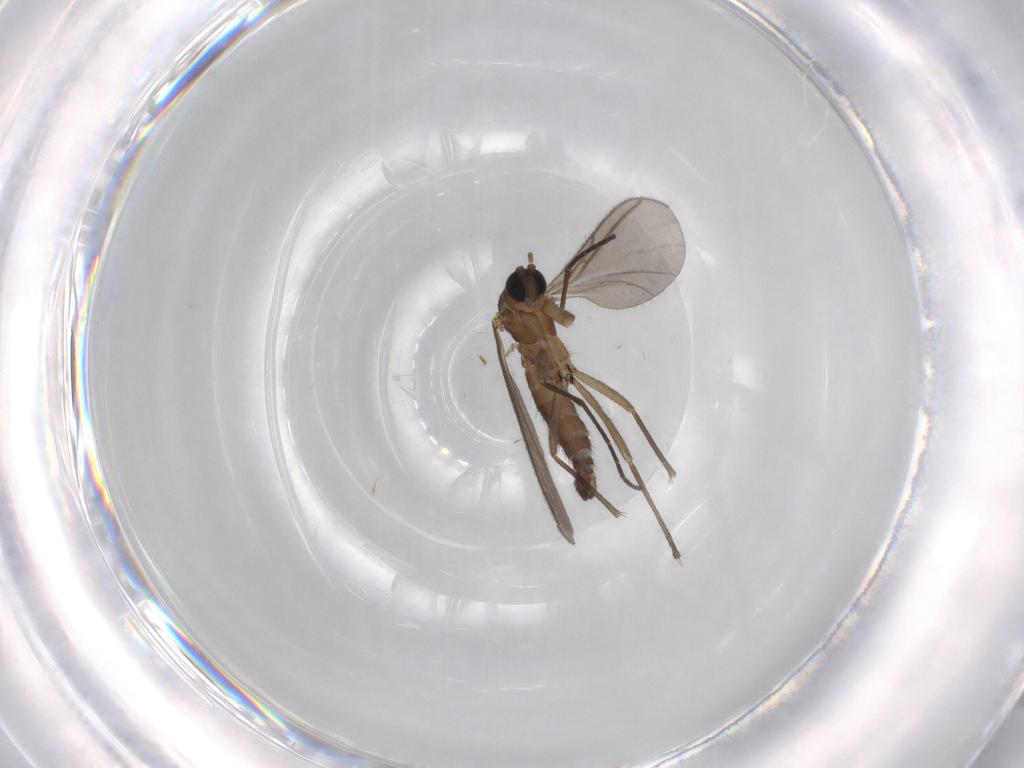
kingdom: Animalia
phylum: Arthropoda
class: Insecta
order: Diptera
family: Sciaridae
